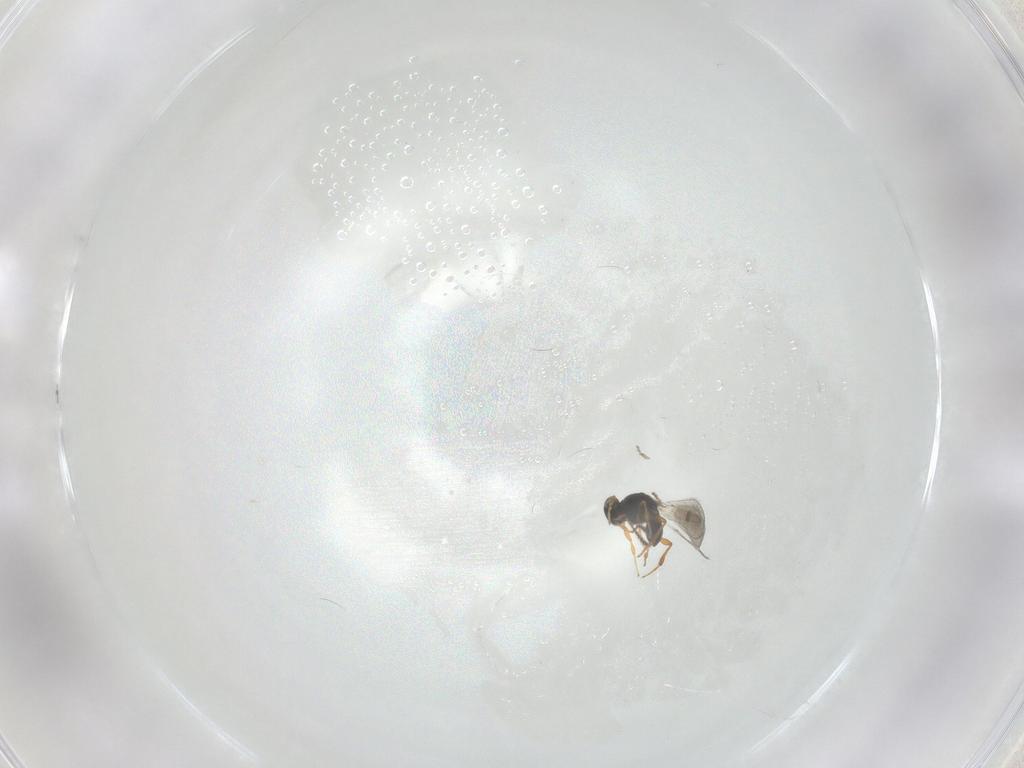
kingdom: Animalia
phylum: Arthropoda
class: Insecta
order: Hymenoptera
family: Platygastridae
